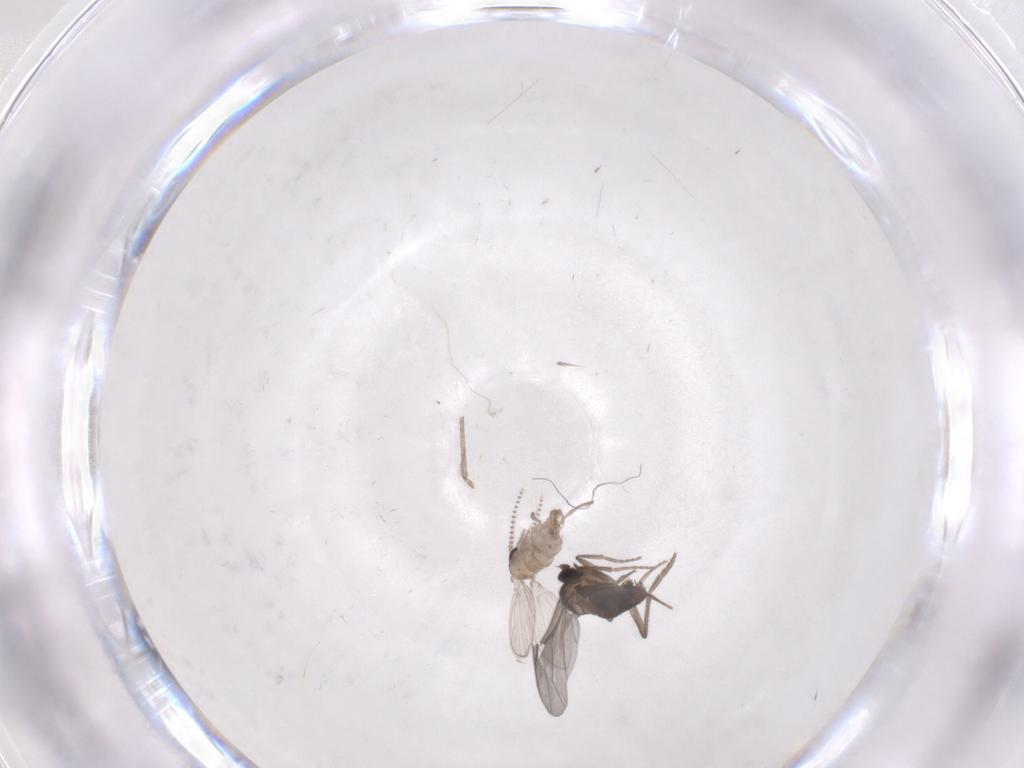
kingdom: Animalia
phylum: Arthropoda
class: Insecta
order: Diptera
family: Psychodidae
